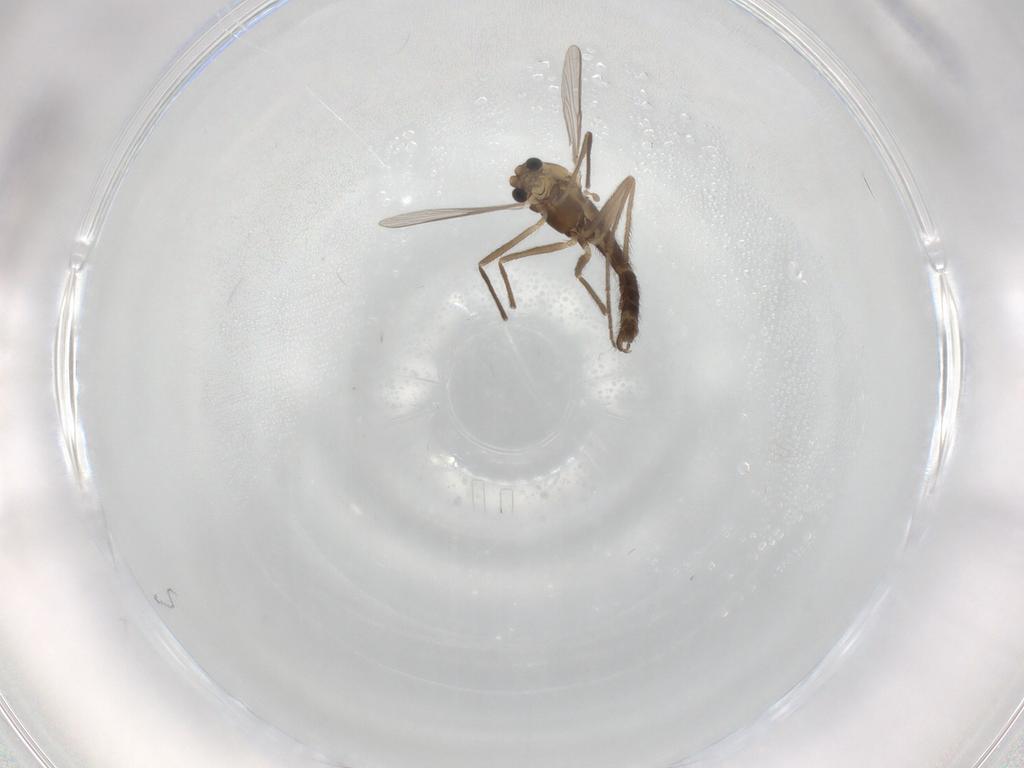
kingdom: Animalia
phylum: Arthropoda
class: Insecta
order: Diptera
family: Chironomidae
